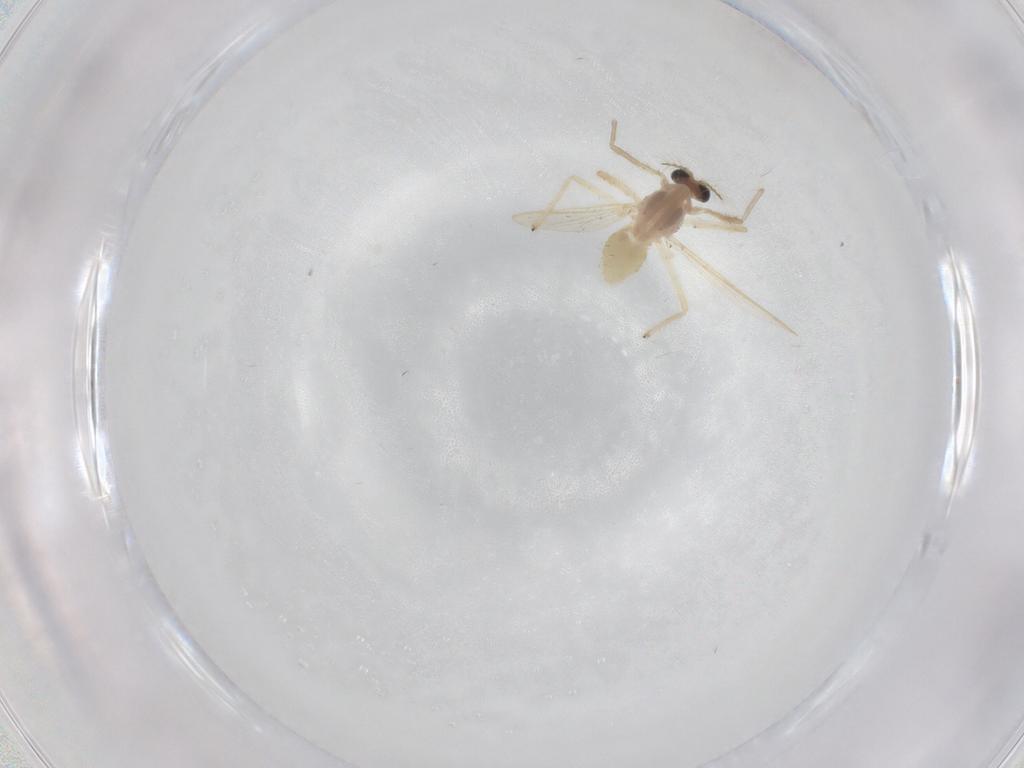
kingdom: Animalia
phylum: Arthropoda
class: Insecta
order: Diptera
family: Chironomidae
